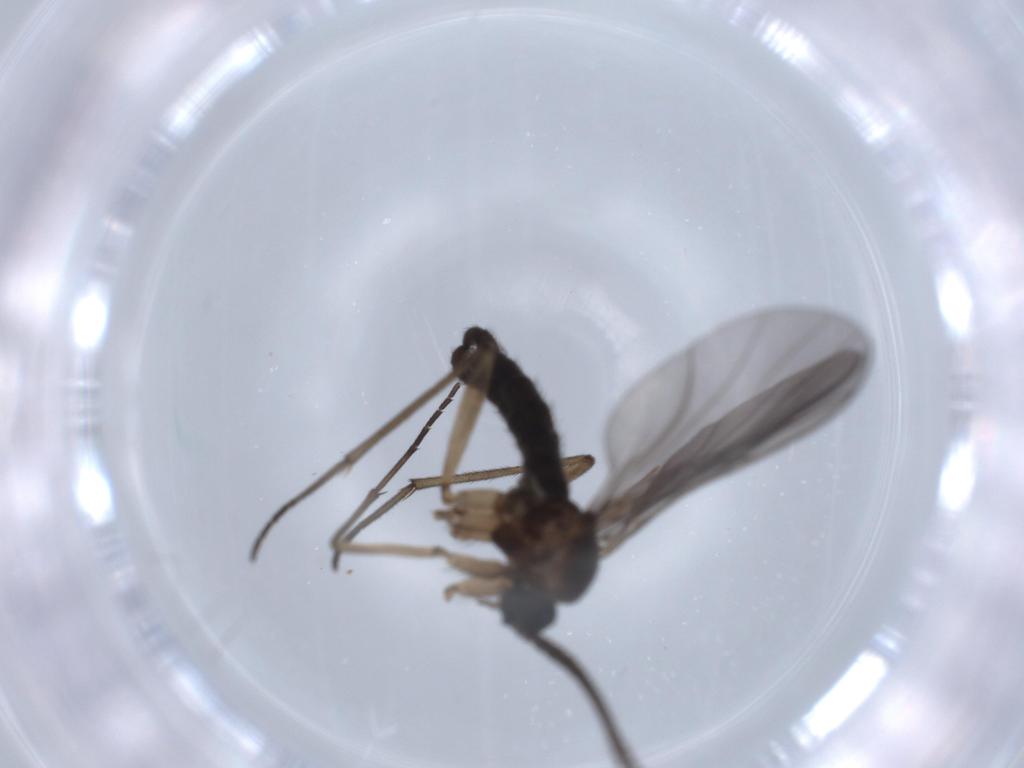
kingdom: Animalia
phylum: Arthropoda
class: Insecta
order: Diptera
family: Sciaridae
